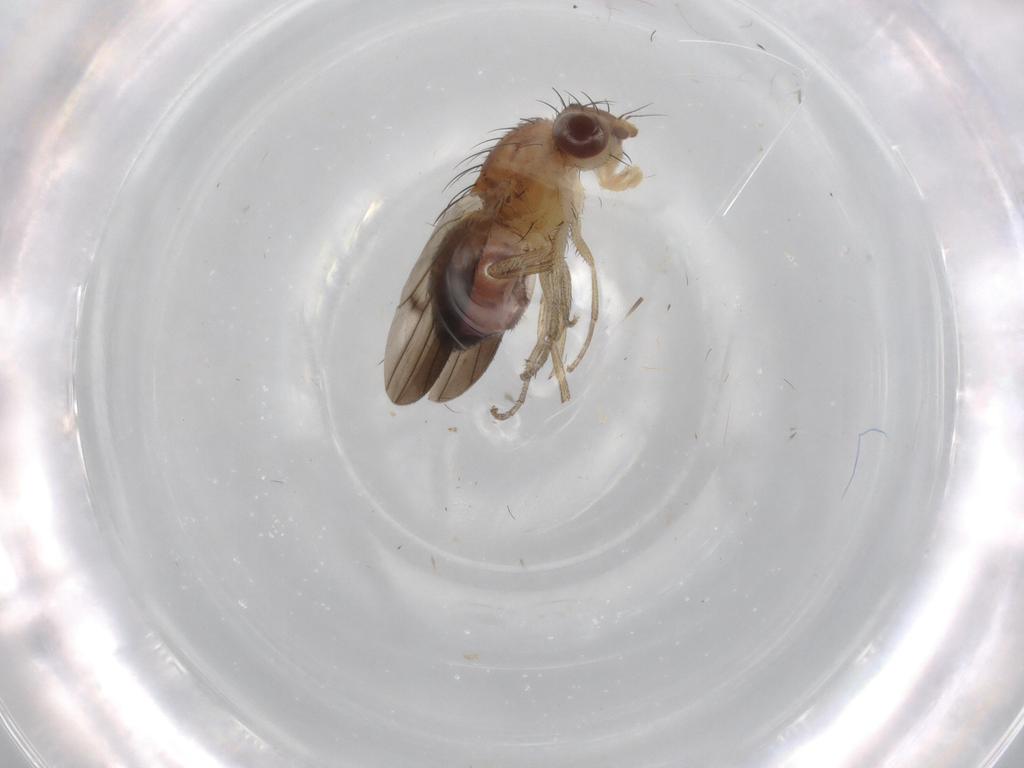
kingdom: Animalia
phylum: Arthropoda
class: Insecta
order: Diptera
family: Heleomyzidae
